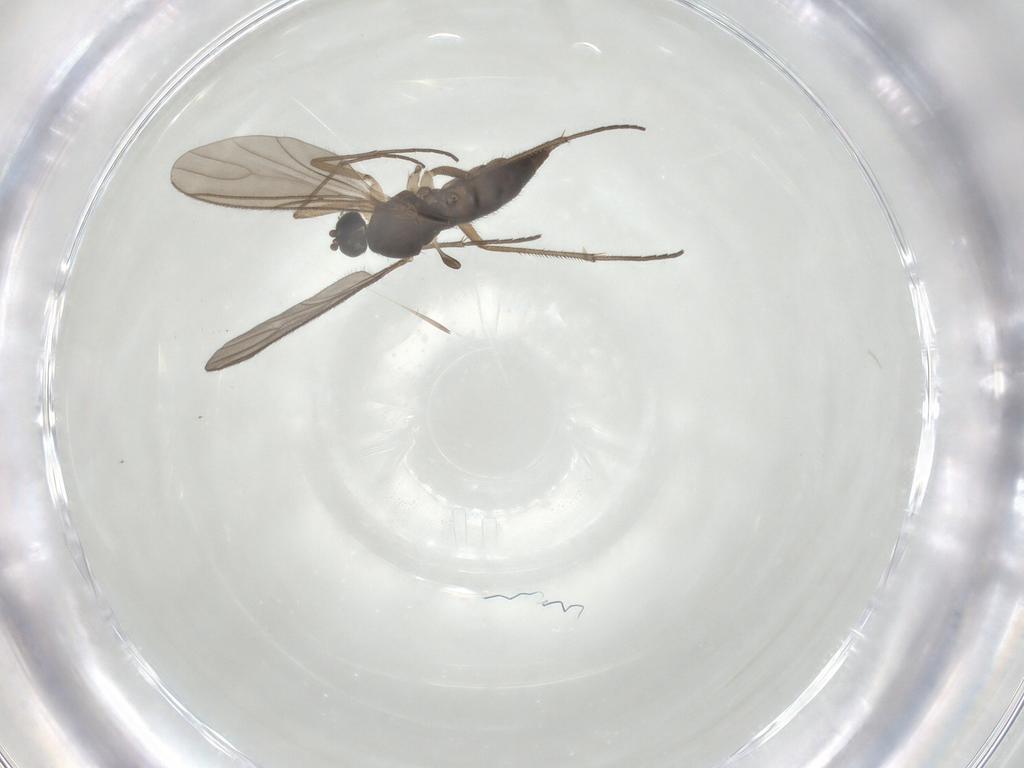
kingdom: Animalia
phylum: Arthropoda
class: Insecta
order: Diptera
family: Sciaridae
